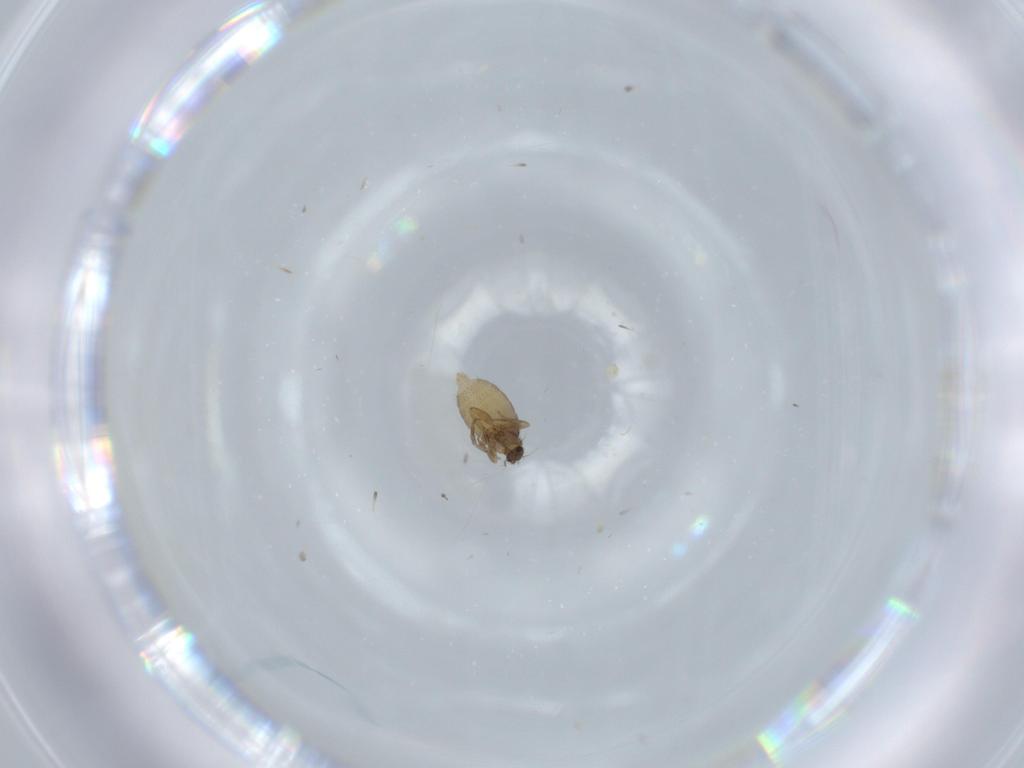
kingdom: Animalia
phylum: Arthropoda
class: Insecta
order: Diptera
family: Phoridae
